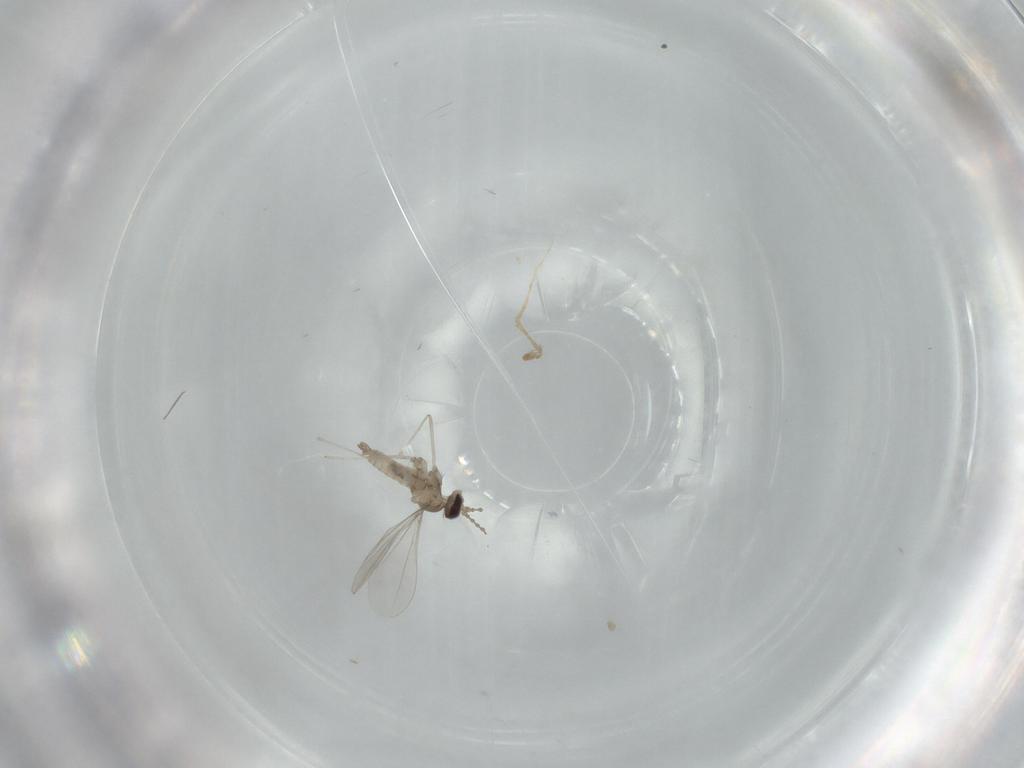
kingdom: Animalia
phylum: Arthropoda
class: Insecta
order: Diptera
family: Cecidomyiidae
